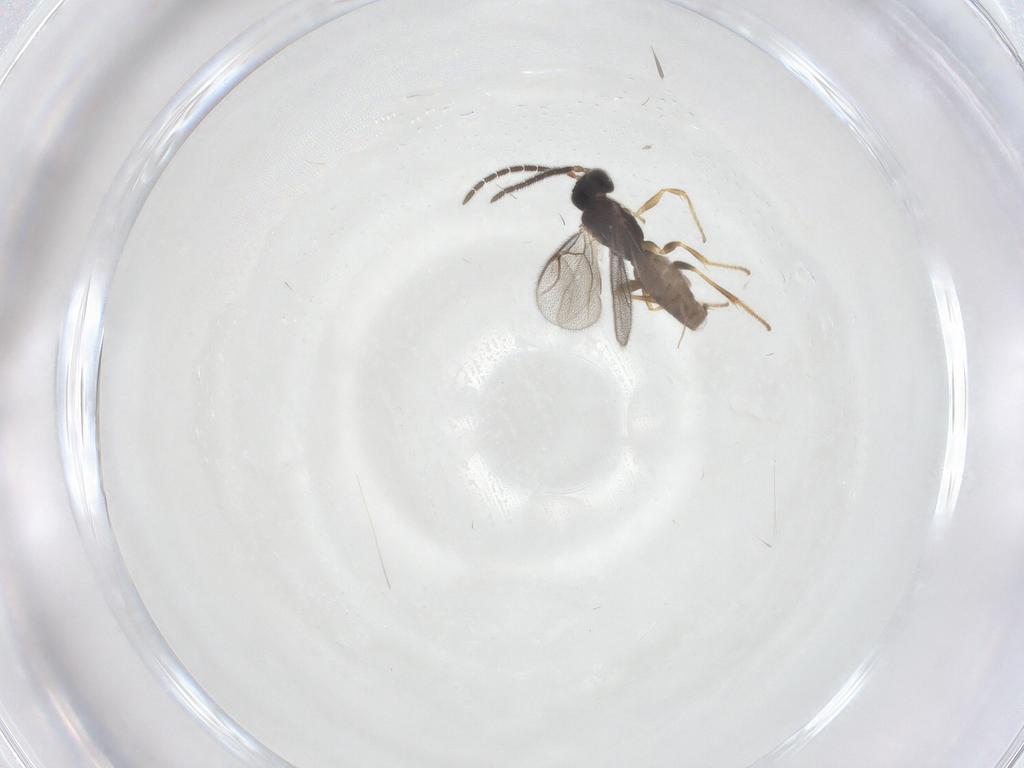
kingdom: Animalia
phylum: Arthropoda
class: Insecta
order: Hymenoptera
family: Dryinidae
